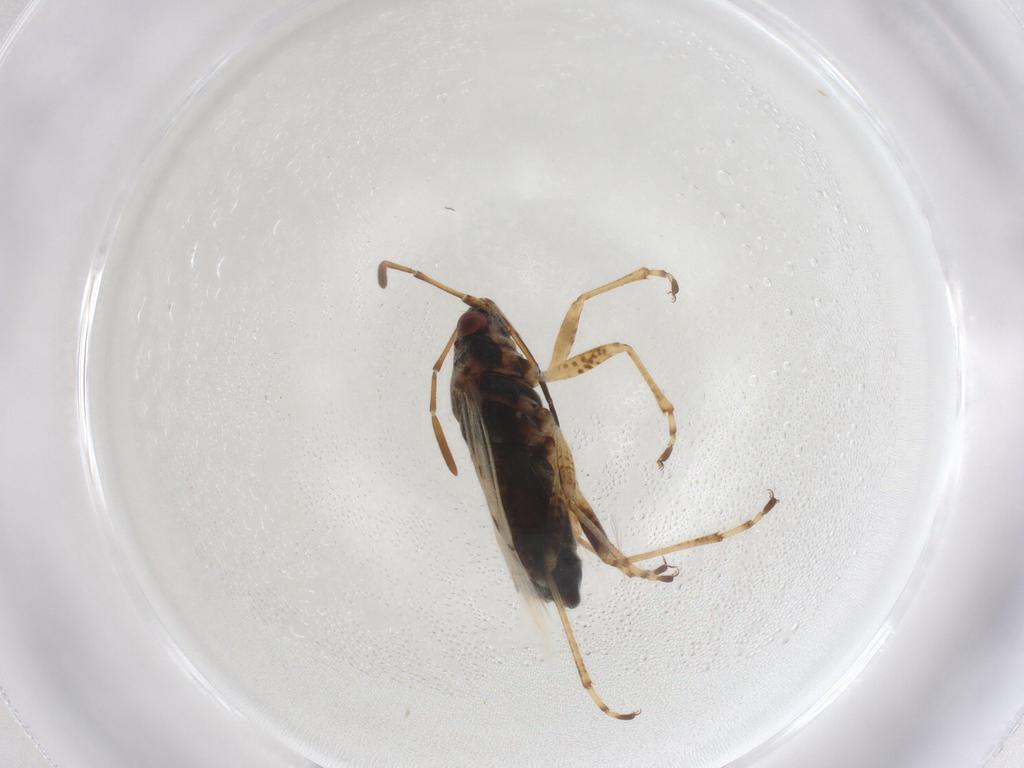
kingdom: Animalia
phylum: Arthropoda
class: Insecta
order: Hemiptera
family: Lygaeidae
